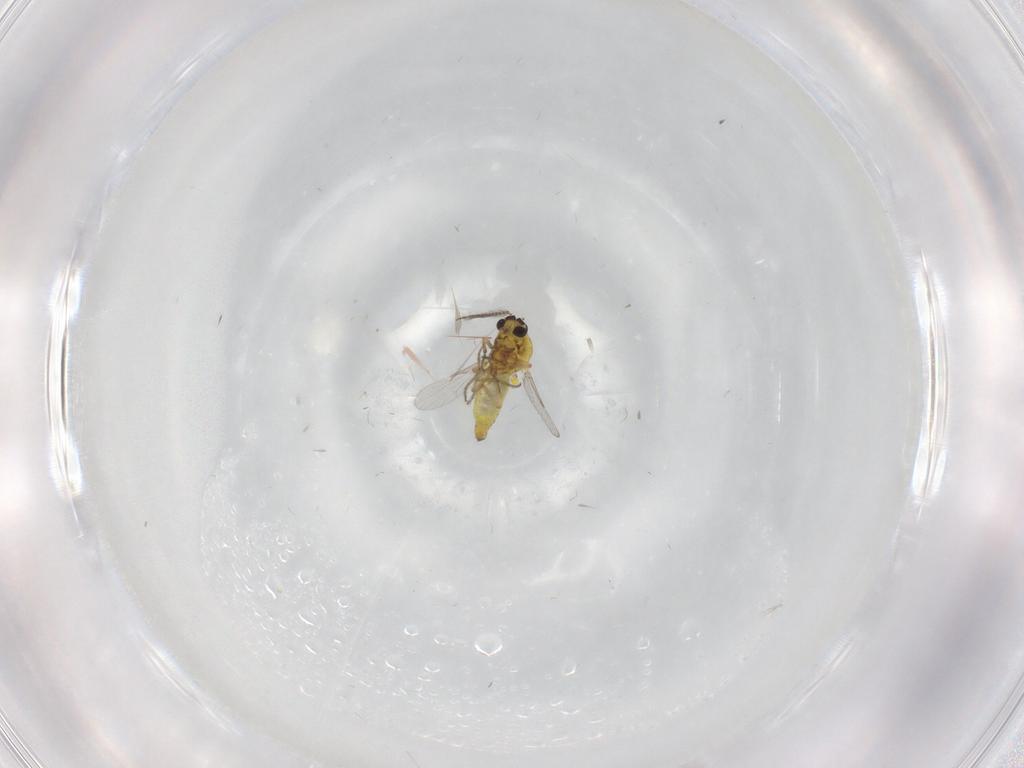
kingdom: Animalia
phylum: Arthropoda
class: Insecta
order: Diptera
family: Ceratopogonidae
